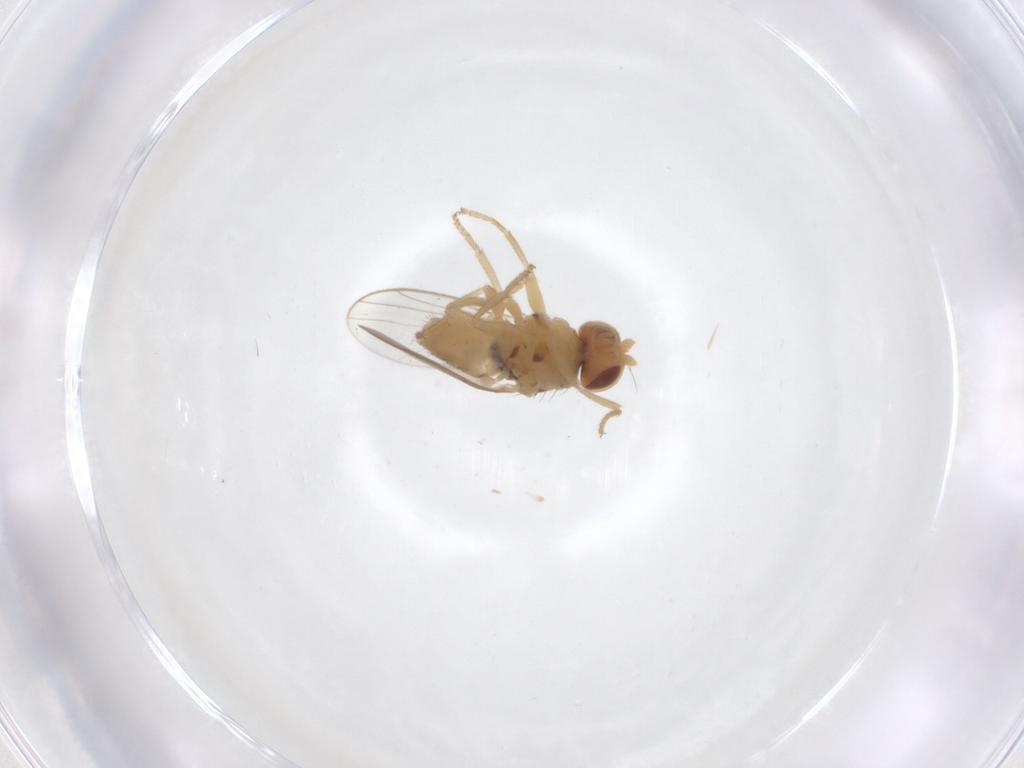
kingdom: Animalia
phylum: Arthropoda
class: Insecta
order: Diptera
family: Chloropidae
